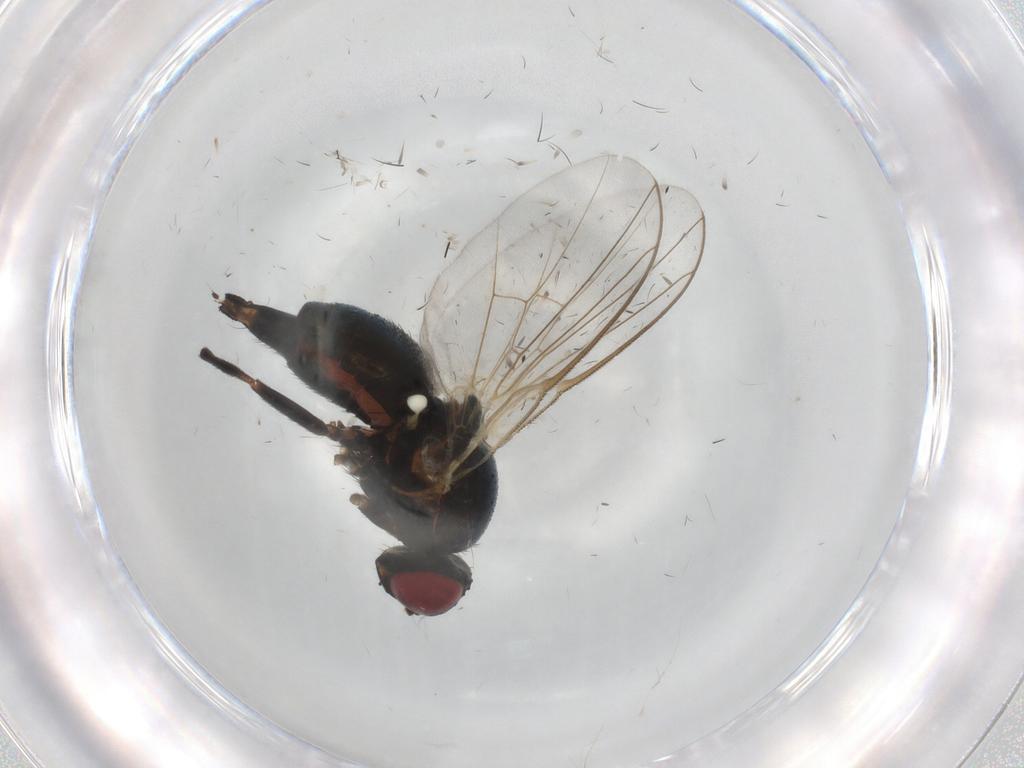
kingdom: Animalia
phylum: Arthropoda
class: Insecta
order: Diptera
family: Agromyzidae
